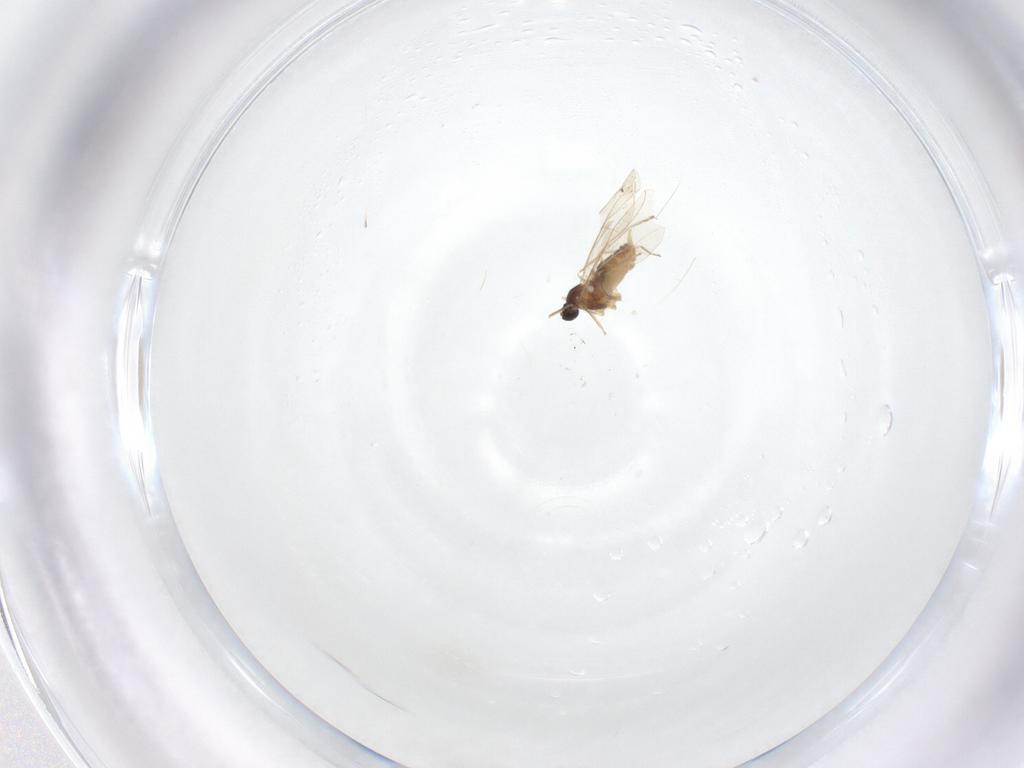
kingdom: Animalia
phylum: Arthropoda
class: Insecta
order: Diptera
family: Cecidomyiidae
